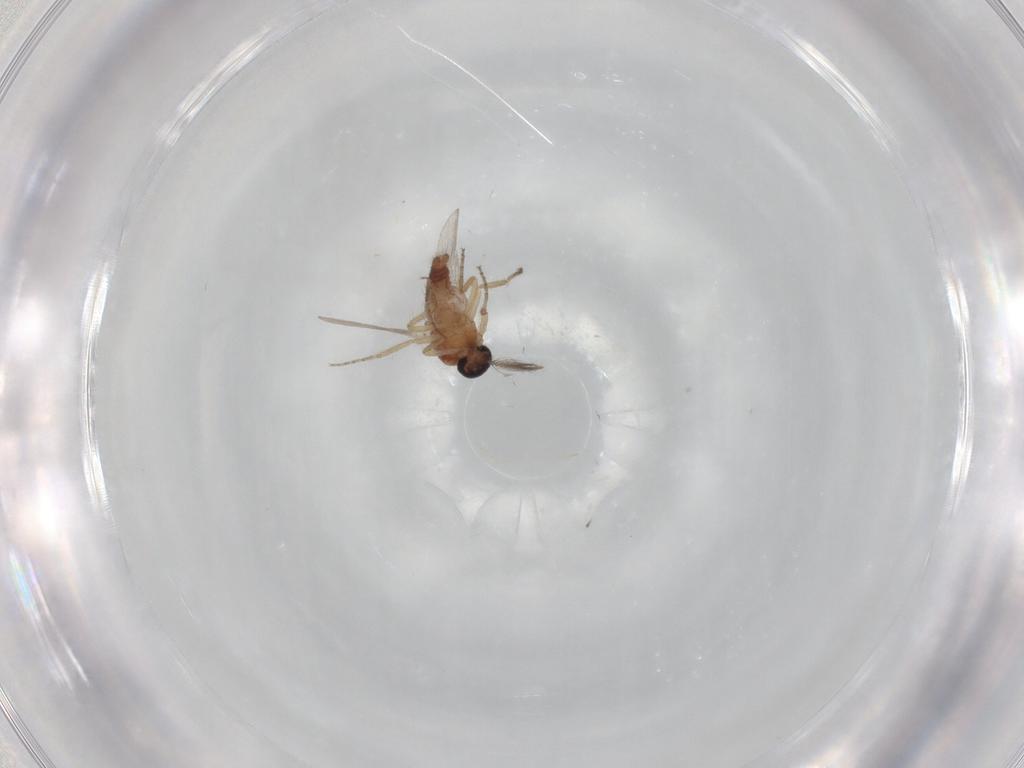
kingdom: Animalia
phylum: Arthropoda
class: Insecta
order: Diptera
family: Ceratopogonidae
